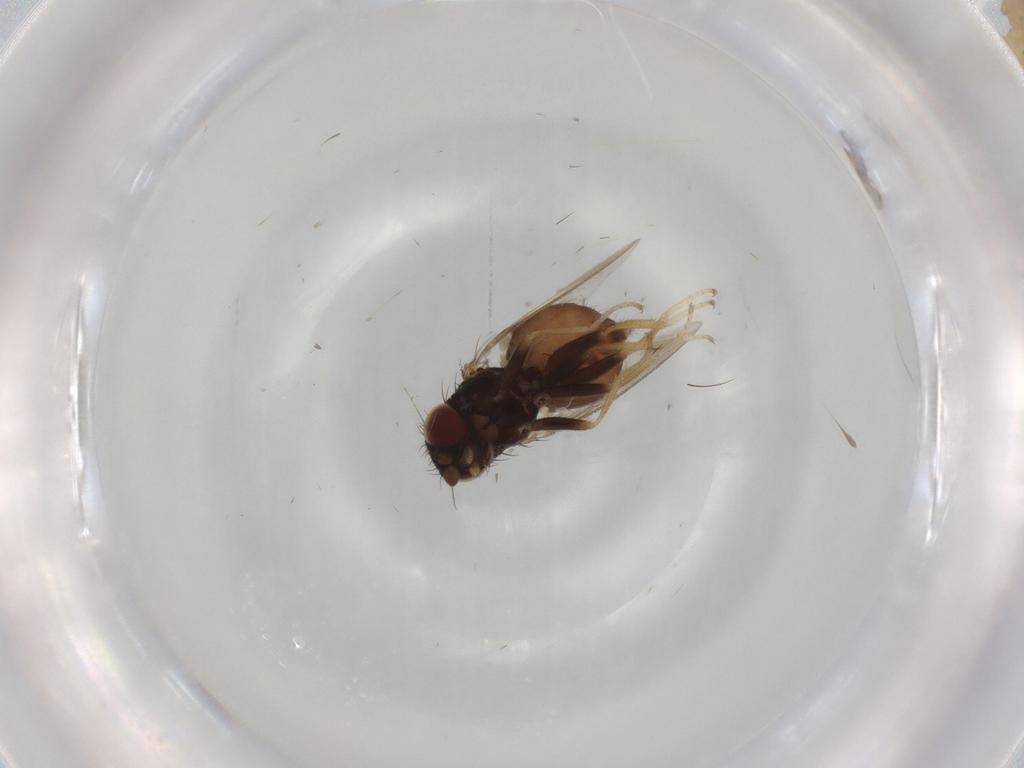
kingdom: Animalia
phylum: Arthropoda
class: Insecta
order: Diptera
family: Milichiidae
